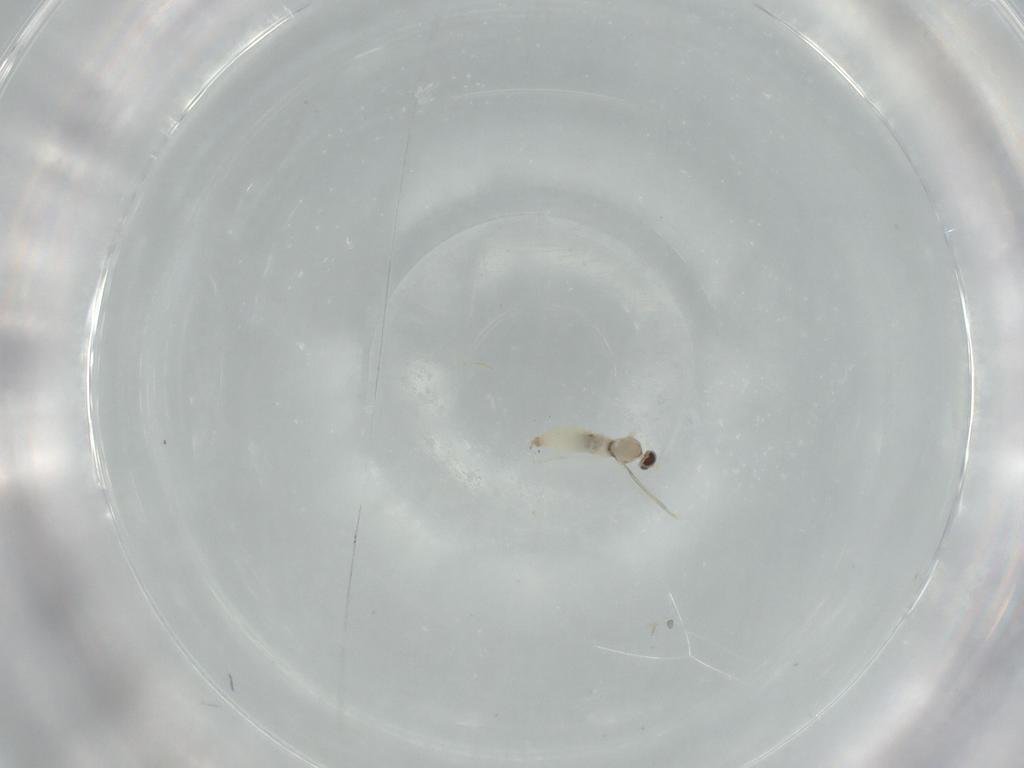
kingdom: Animalia
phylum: Arthropoda
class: Insecta
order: Diptera
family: Cecidomyiidae
